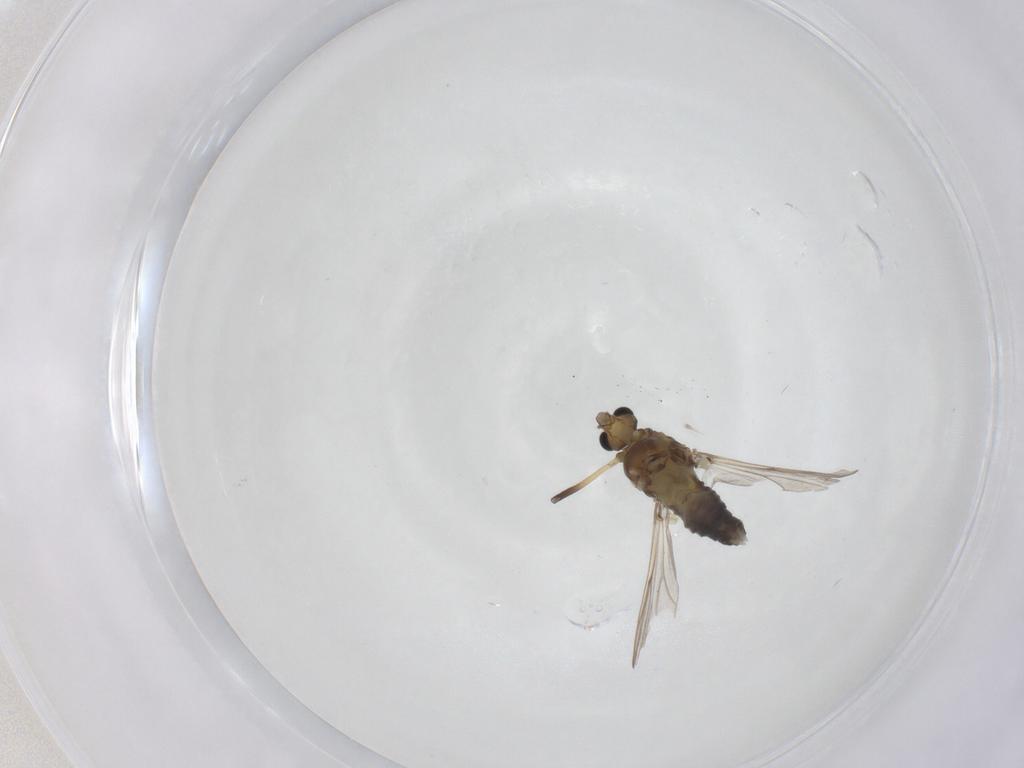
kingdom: Animalia
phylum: Arthropoda
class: Insecta
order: Diptera
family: Chironomidae
